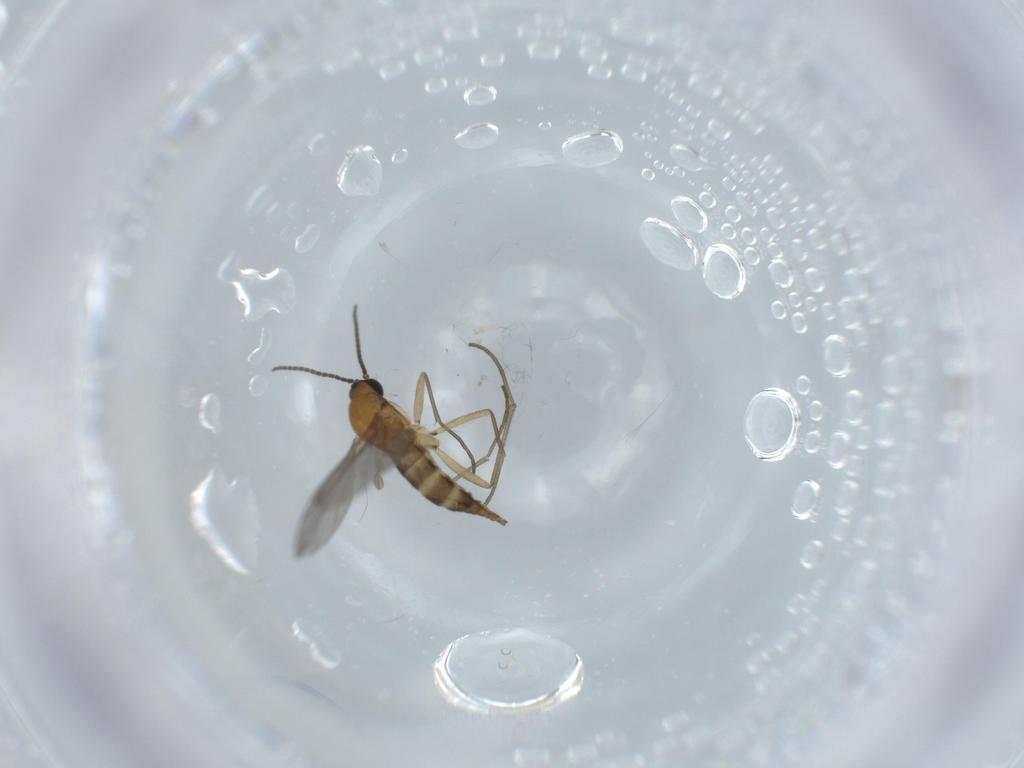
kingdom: Animalia
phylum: Arthropoda
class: Insecta
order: Diptera
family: Sciaridae
